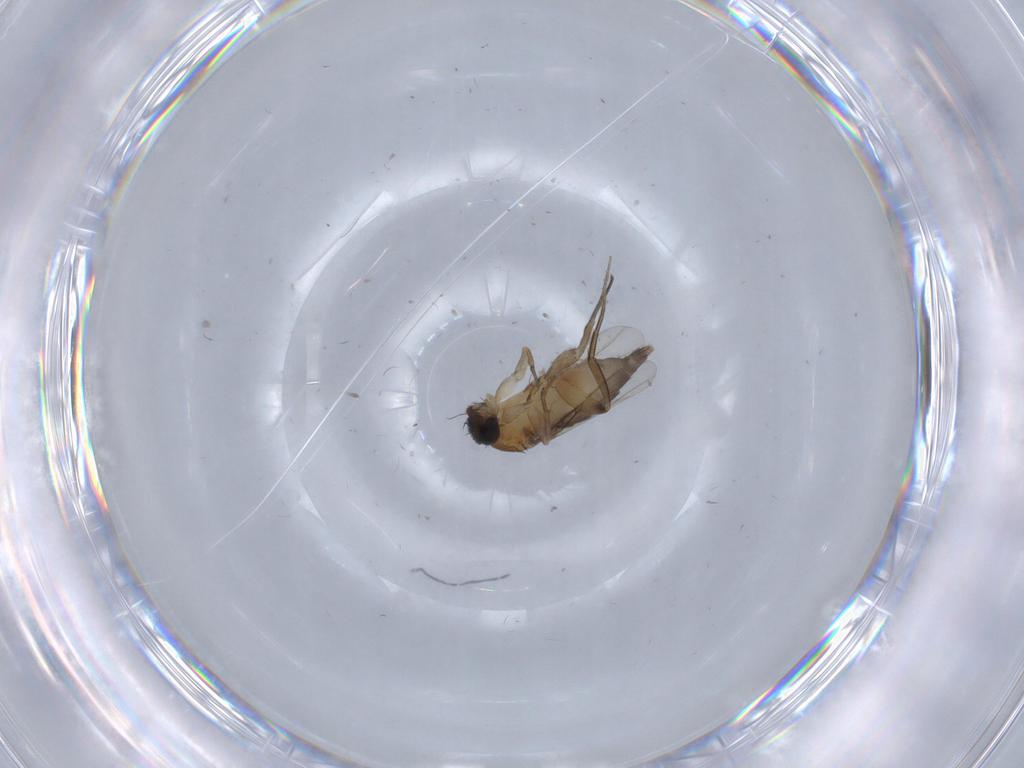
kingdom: Animalia
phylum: Arthropoda
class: Insecta
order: Diptera
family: Phoridae
